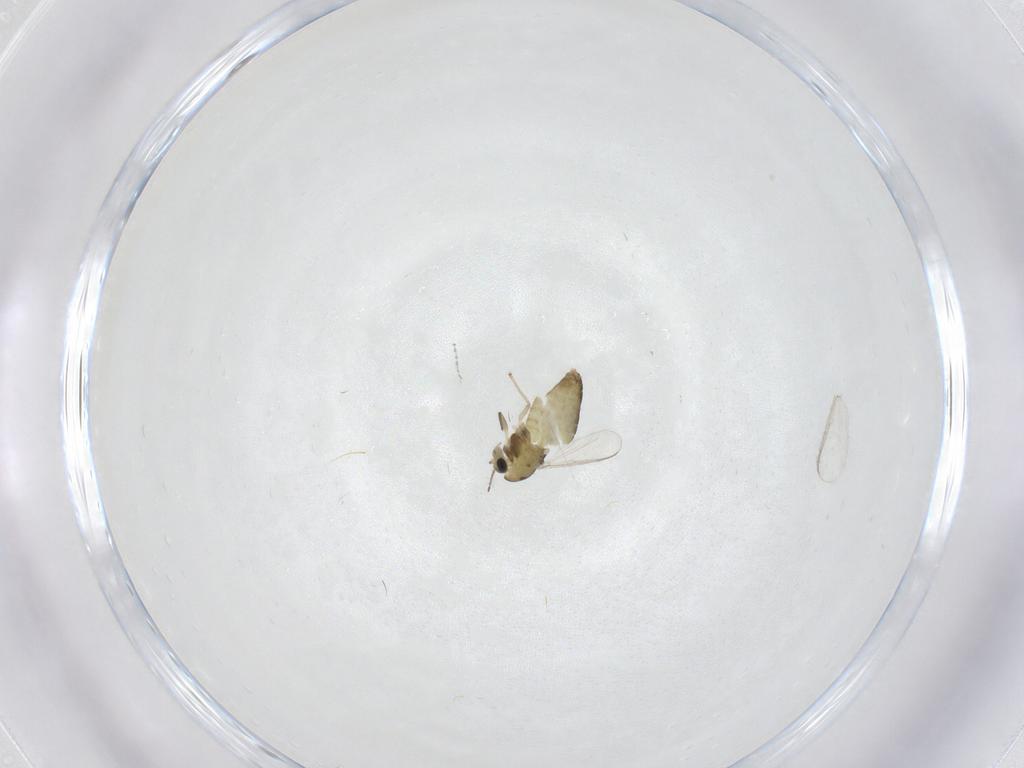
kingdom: Animalia
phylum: Arthropoda
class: Insecta
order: Diptera
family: Chironomidae
